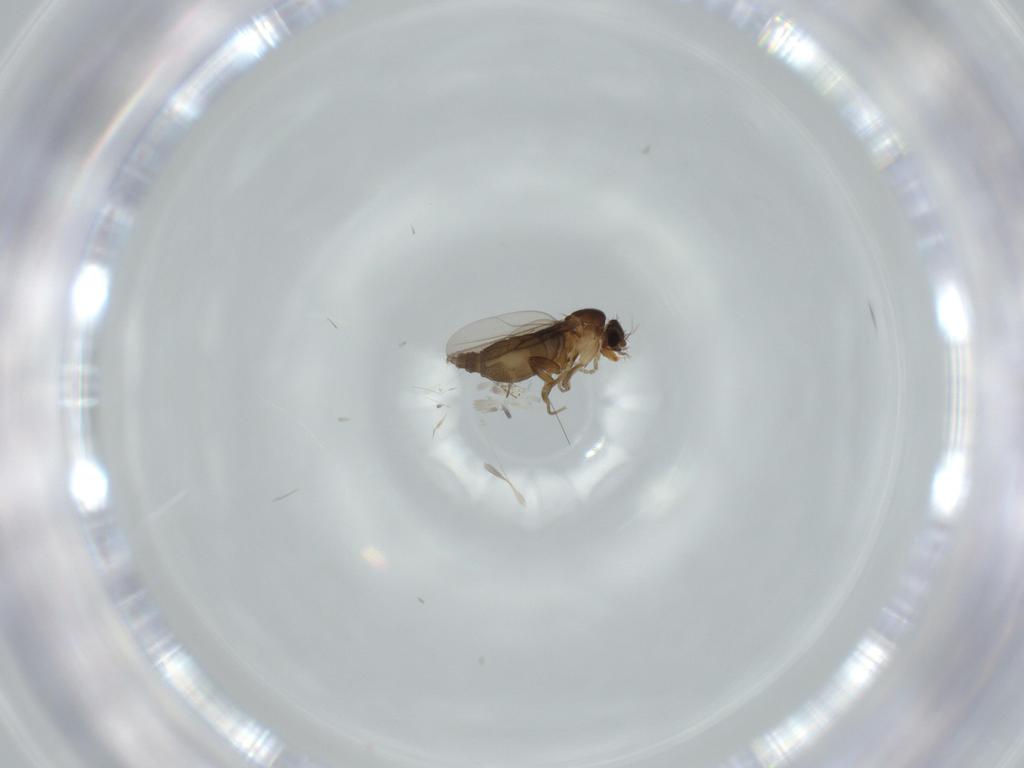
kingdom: Animalia
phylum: Arthropoda
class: Insecta
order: Diptera
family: Phoridae
